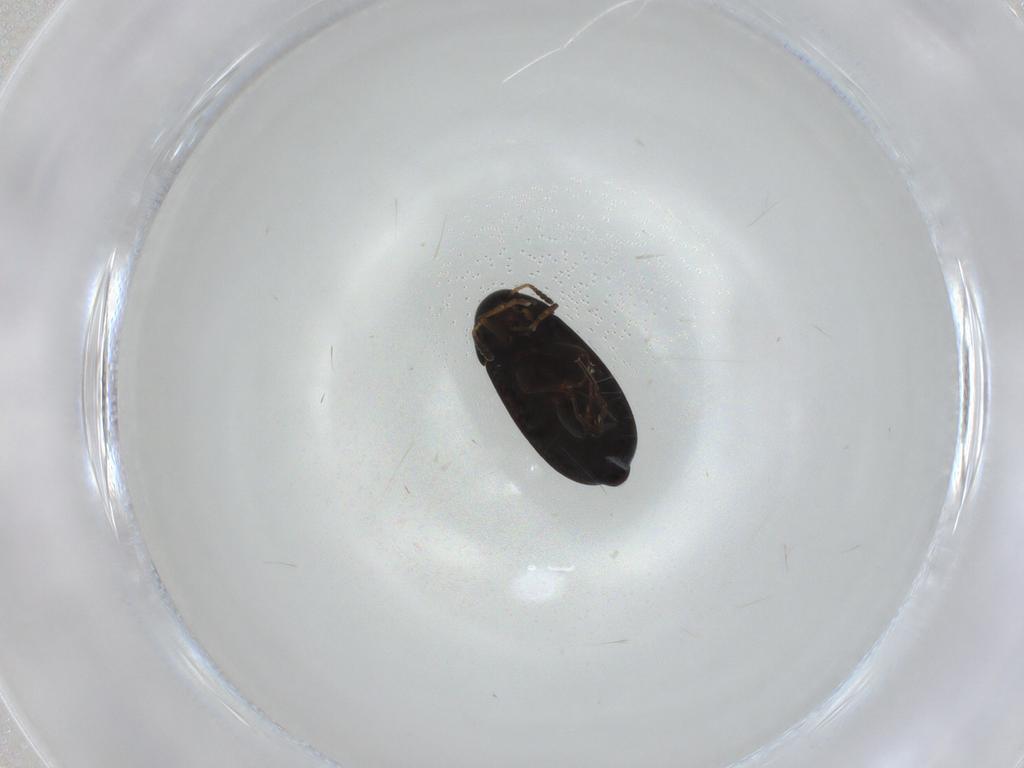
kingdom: Animalia
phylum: Arthropoda
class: Insecta
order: Coleoptera
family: Scraptiidae
